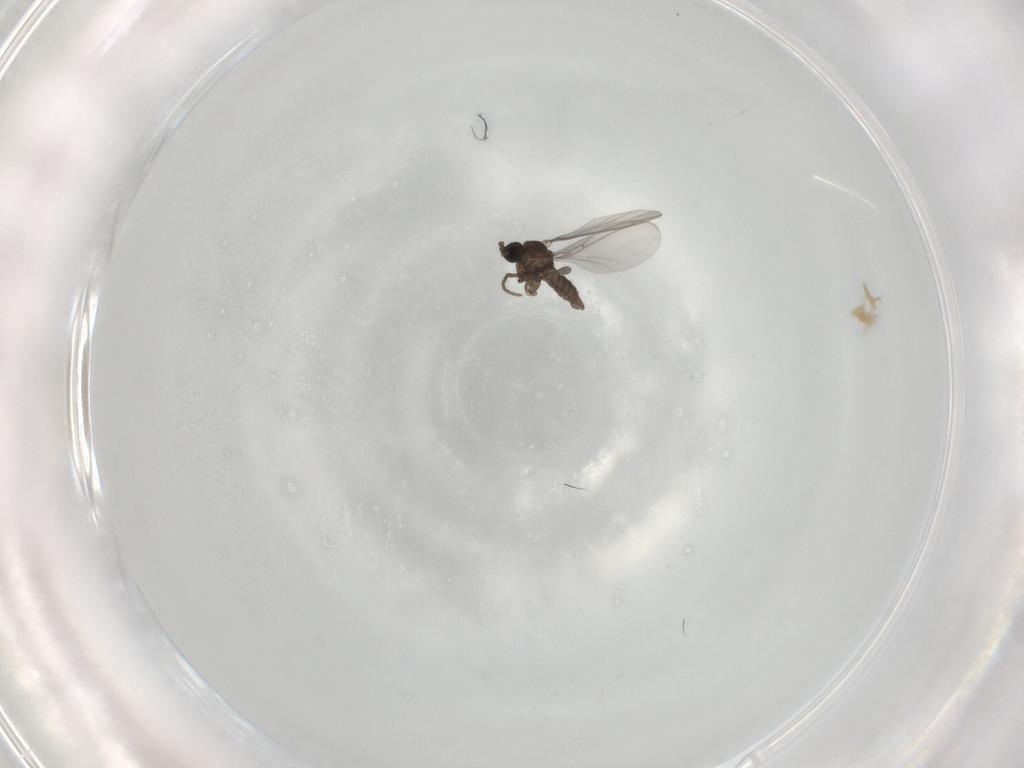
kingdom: Animalia
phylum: Arthropoda
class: Insecta
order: Diptera
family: Sciaridae
